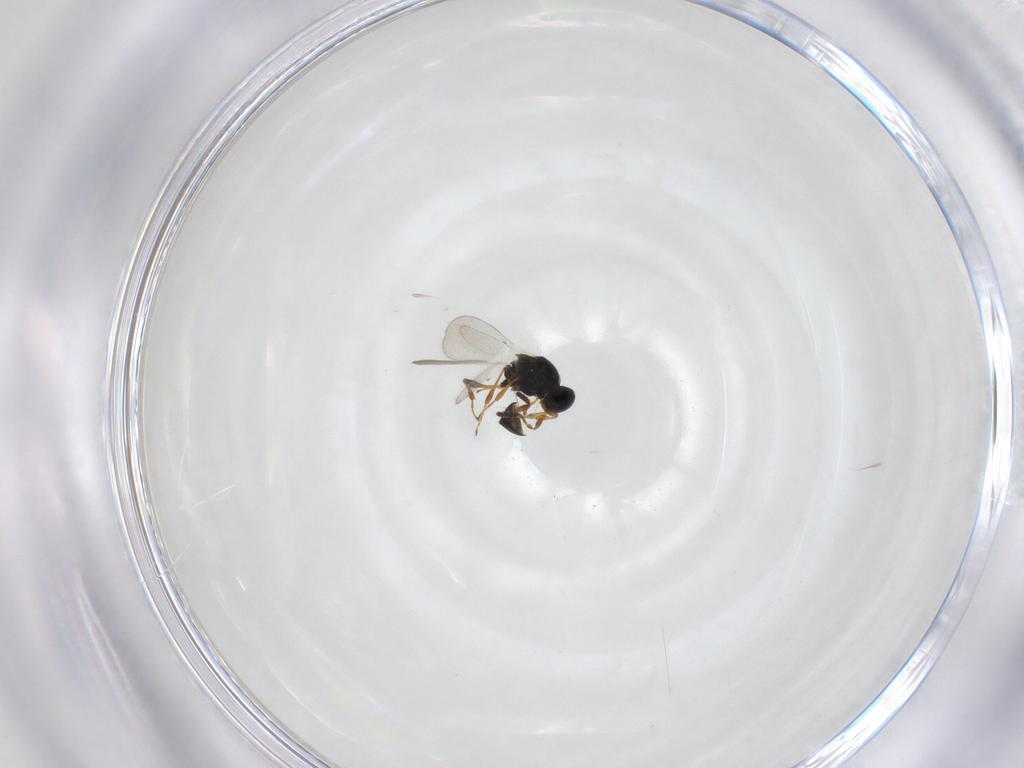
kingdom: Animalia
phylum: Arthropoda
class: Insecta
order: Hymenoptera
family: Platygastridae
